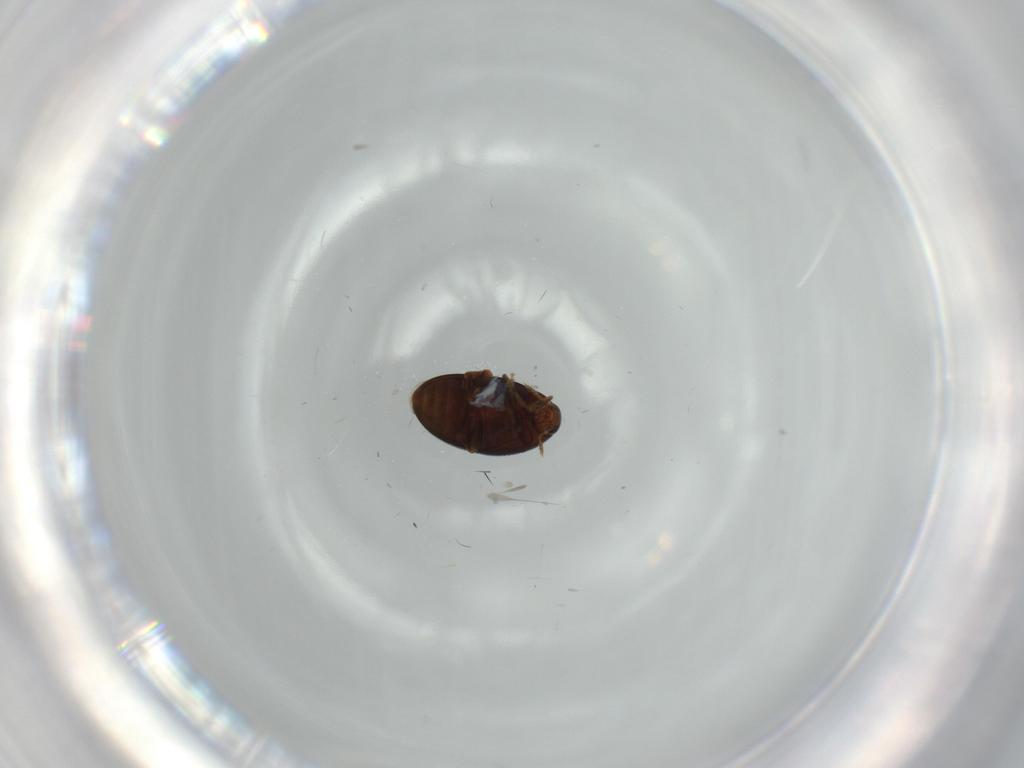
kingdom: Animalia
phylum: Arthropoda
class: Insecta
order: Coleoptera
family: Melandryidae
